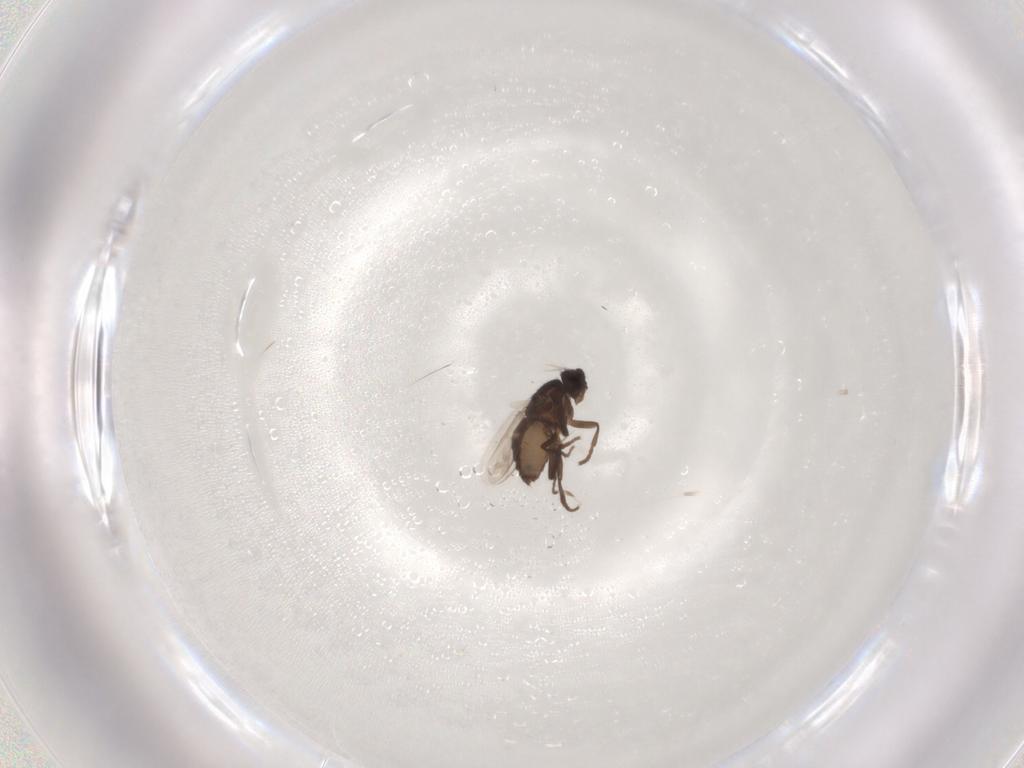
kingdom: Animalia
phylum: Arthropoda
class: Insecta
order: Diptera
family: Sphaeroceridae
